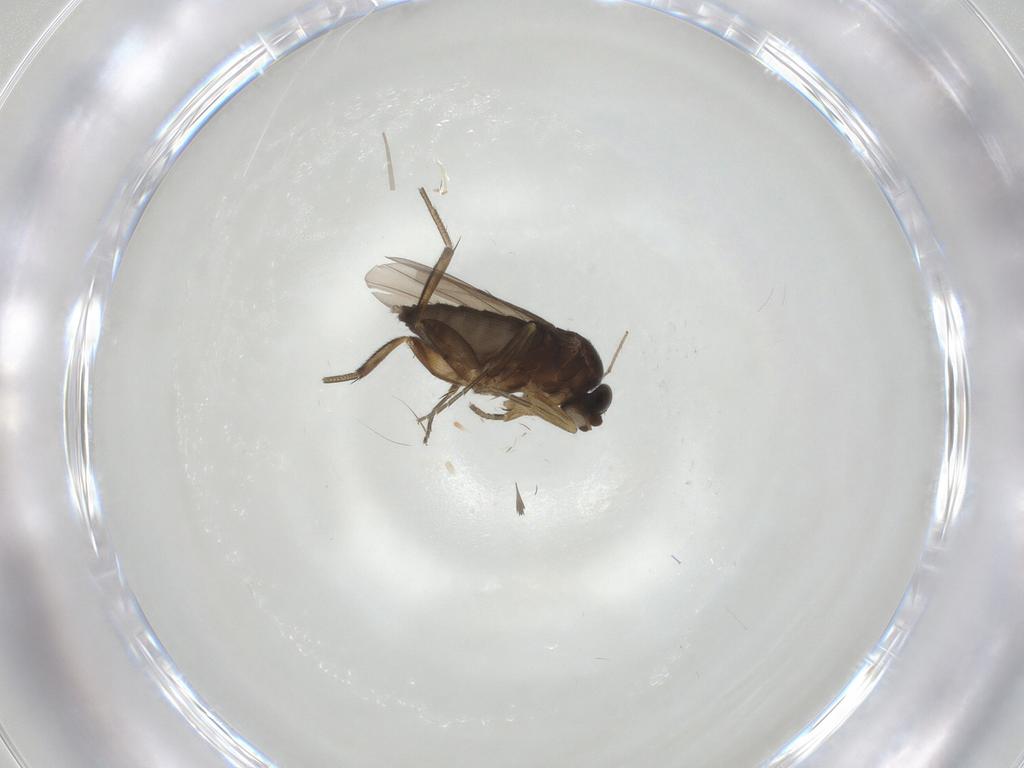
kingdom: Animalia
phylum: Arthropoda
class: Insecta
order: Diptera
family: Phoridae
